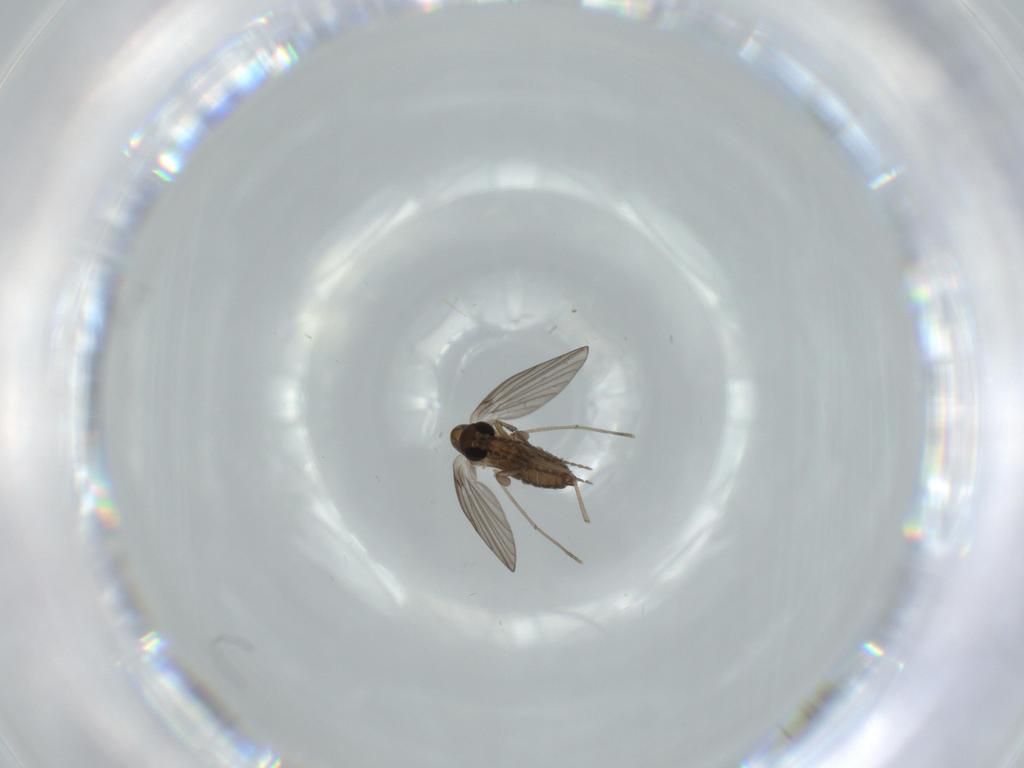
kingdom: Animalia
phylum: Arthropoda
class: Insecta
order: Diptera
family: Psychodidae
